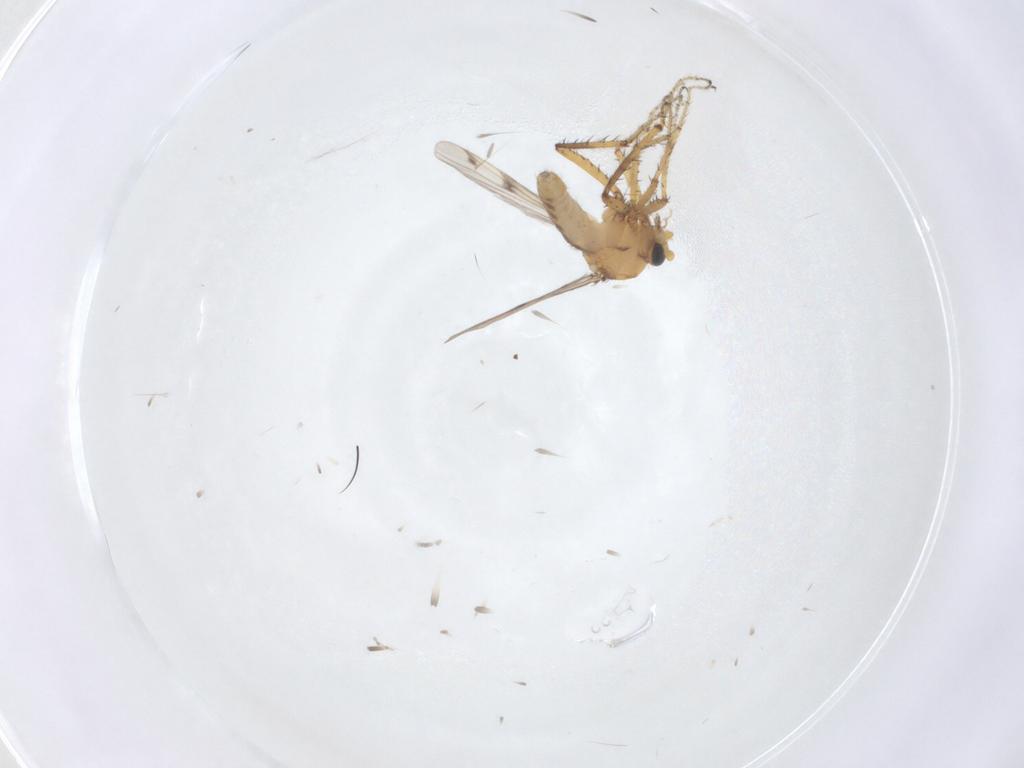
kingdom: Animalia
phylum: Arthropoda
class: Insecta
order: Diptera
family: Ceratopogonidae
